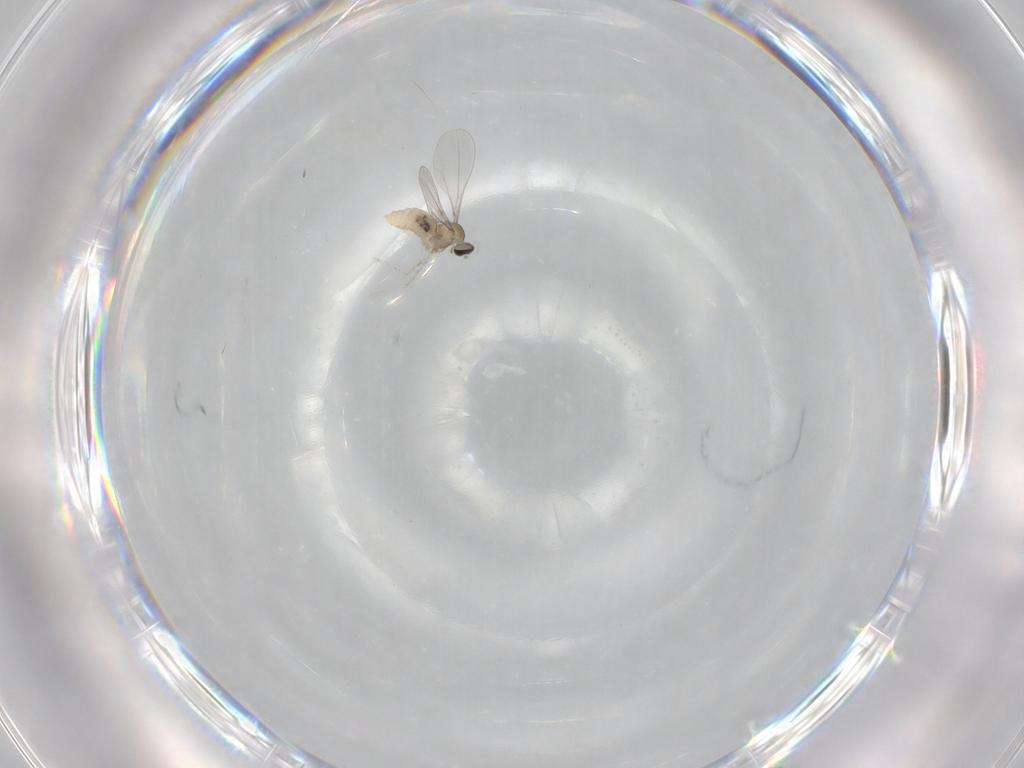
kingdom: Animalia
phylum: Arthropoda
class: Insecta
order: Diptera
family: Cecidomyiidae
